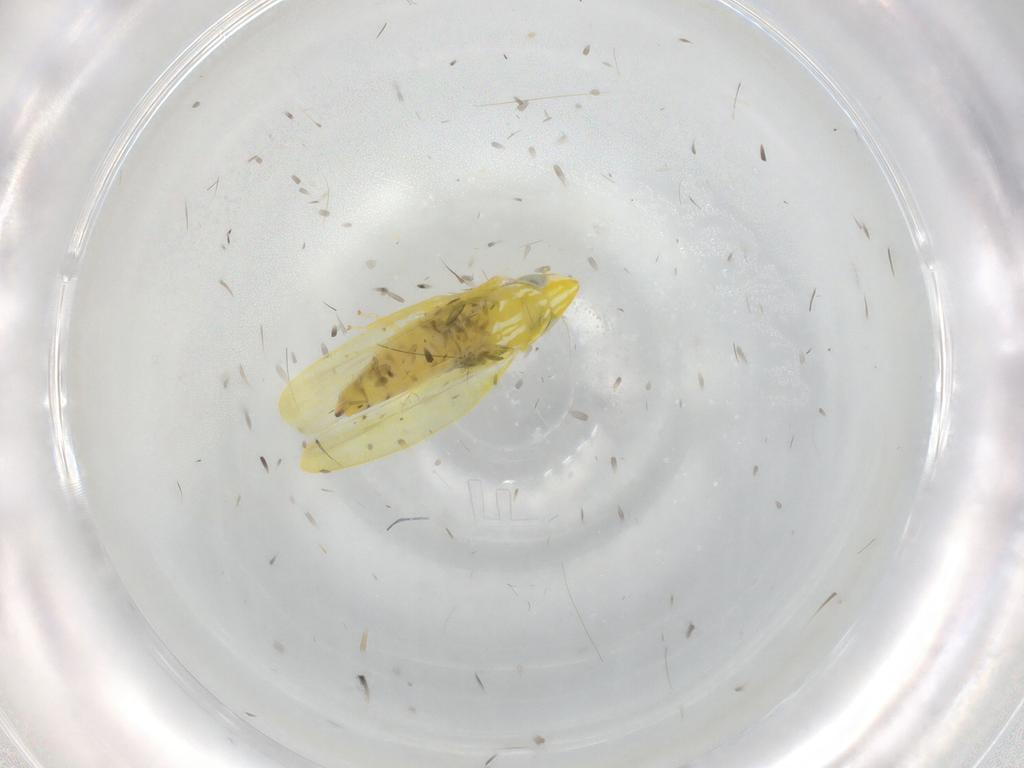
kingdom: Animalia
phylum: Arthropoda
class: Insecta
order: Hemiptera
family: Cicadellidae
